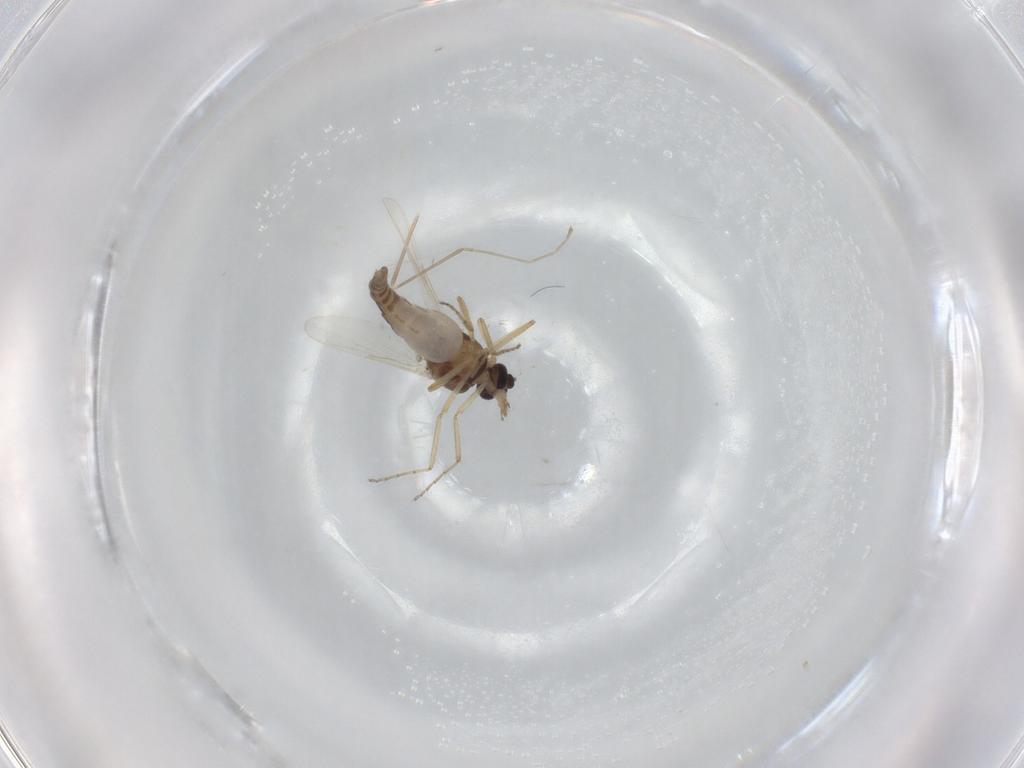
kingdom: Animalia
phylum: Arthropoda
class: Insecta
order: Diptera
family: Ceratopogonidae
